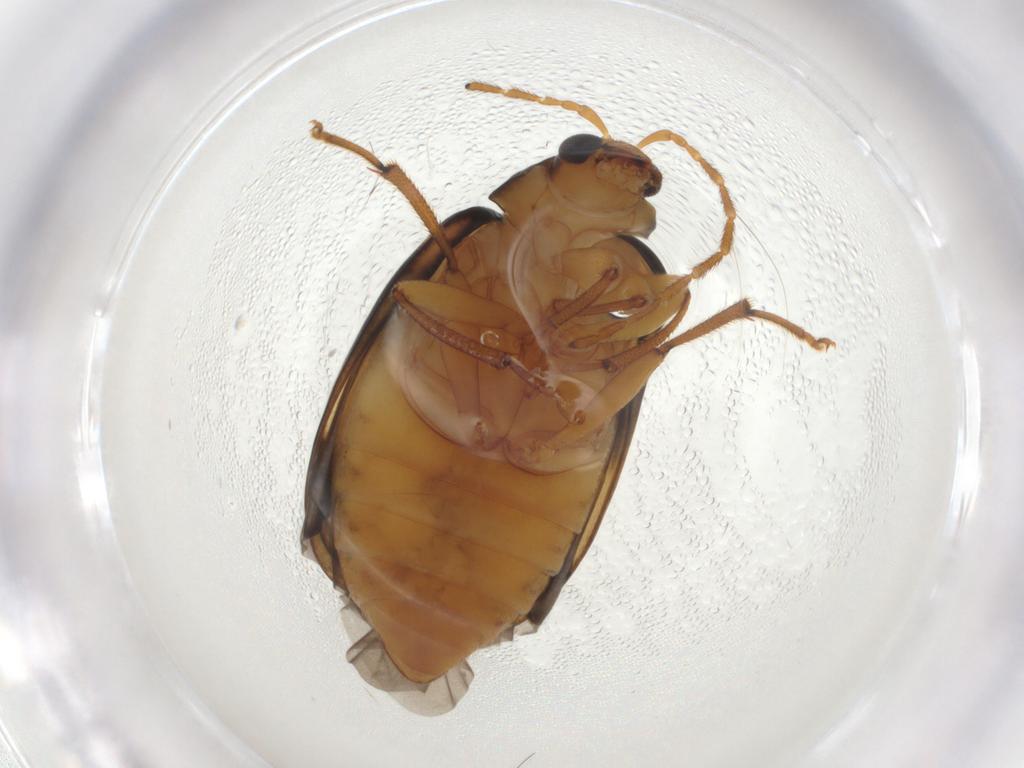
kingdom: Animalia
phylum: Arthropoda
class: Insecta
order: Coleoptera
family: Chrysomelidae
